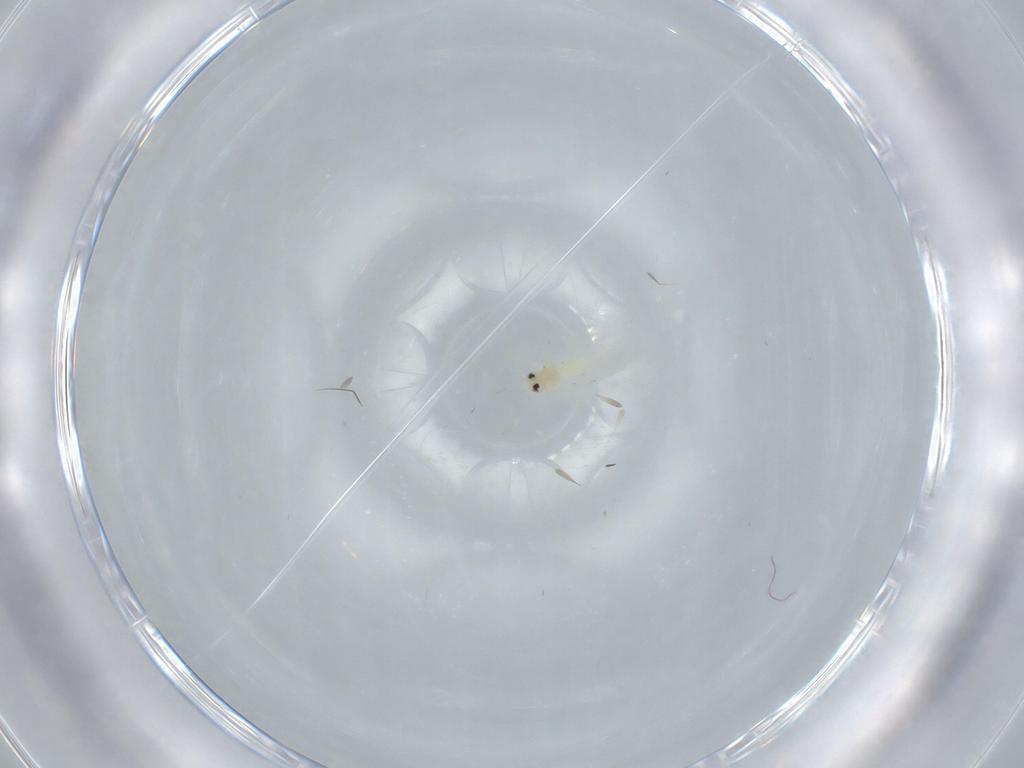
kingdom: Animalia
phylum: Arthropoda
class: Insecta
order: Hemiptera
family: Aleyrodidae
